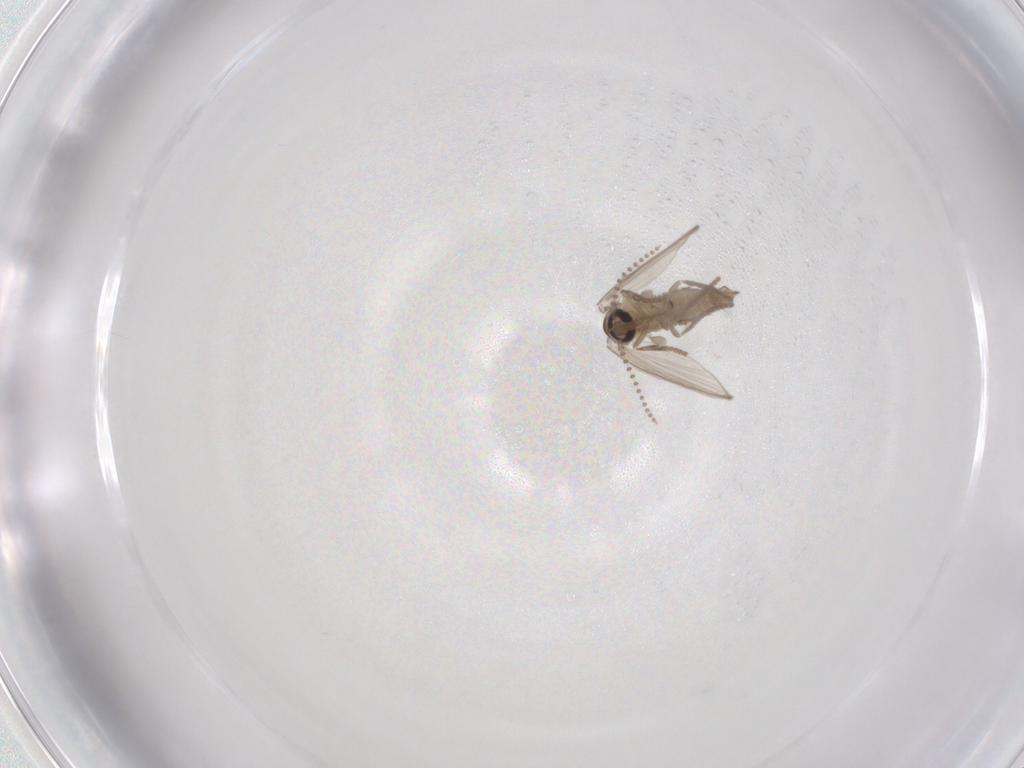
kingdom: Animalia
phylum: Arthropoda
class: Insecta
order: Diptera
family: Psychodidae
